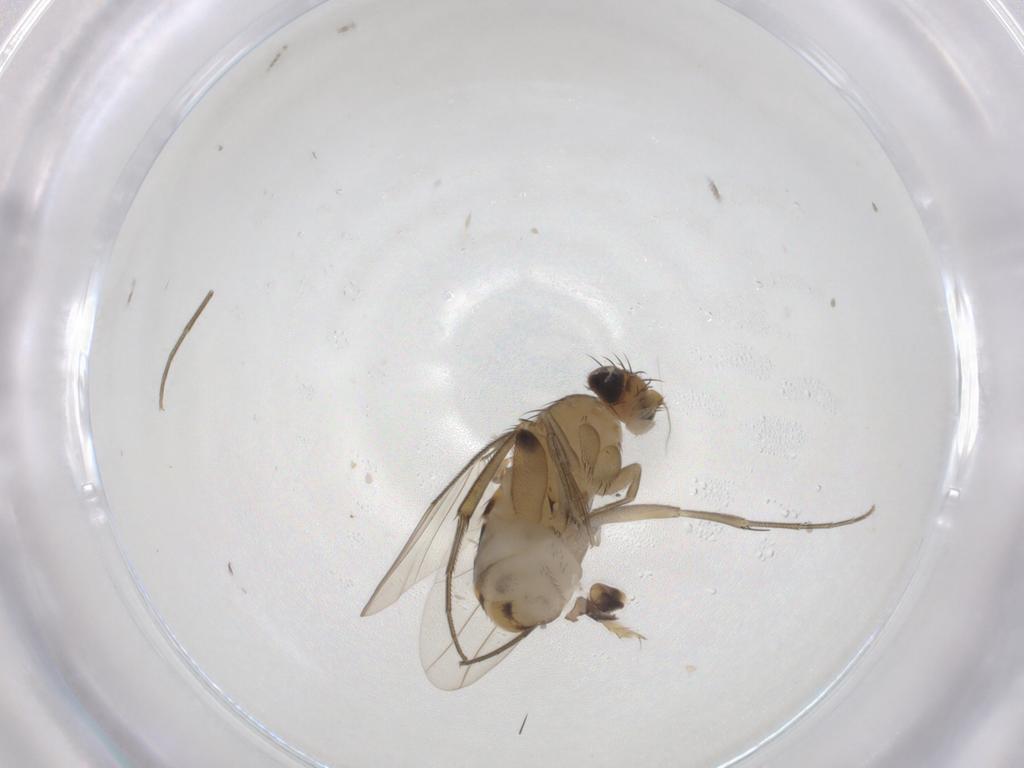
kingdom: Animalia
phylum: Arthropoda
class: Insecta
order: Diptera
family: Phoridae
